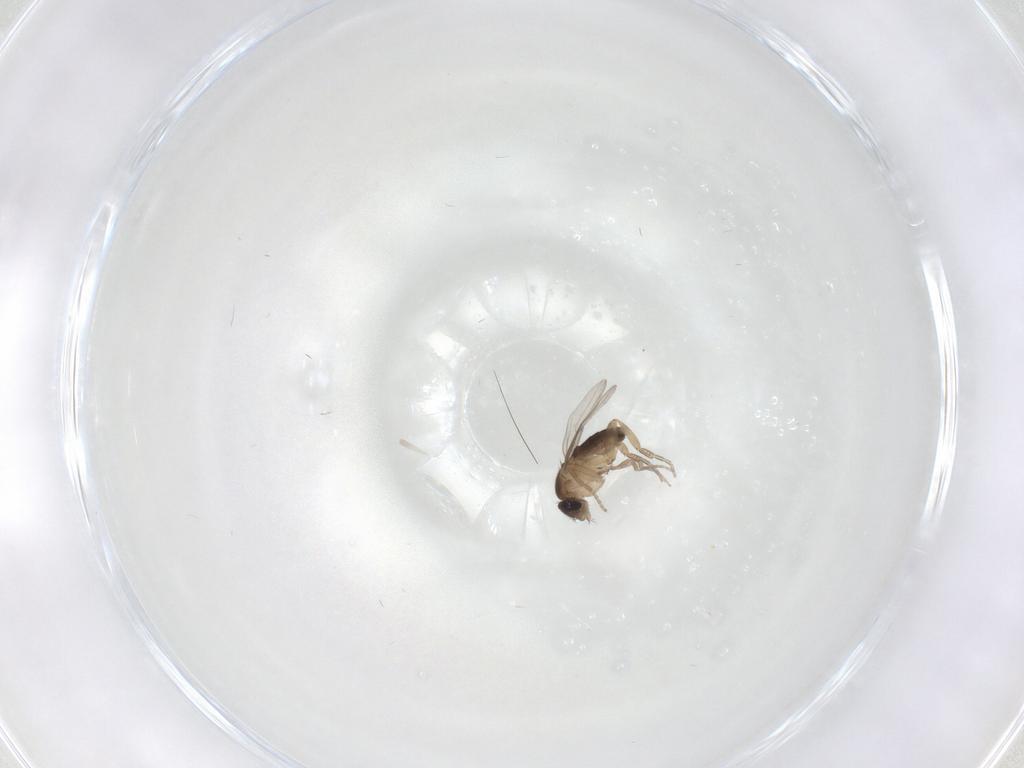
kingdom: Animalia
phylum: Arthropoda
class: Insecta
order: Diptera
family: Phoridae
